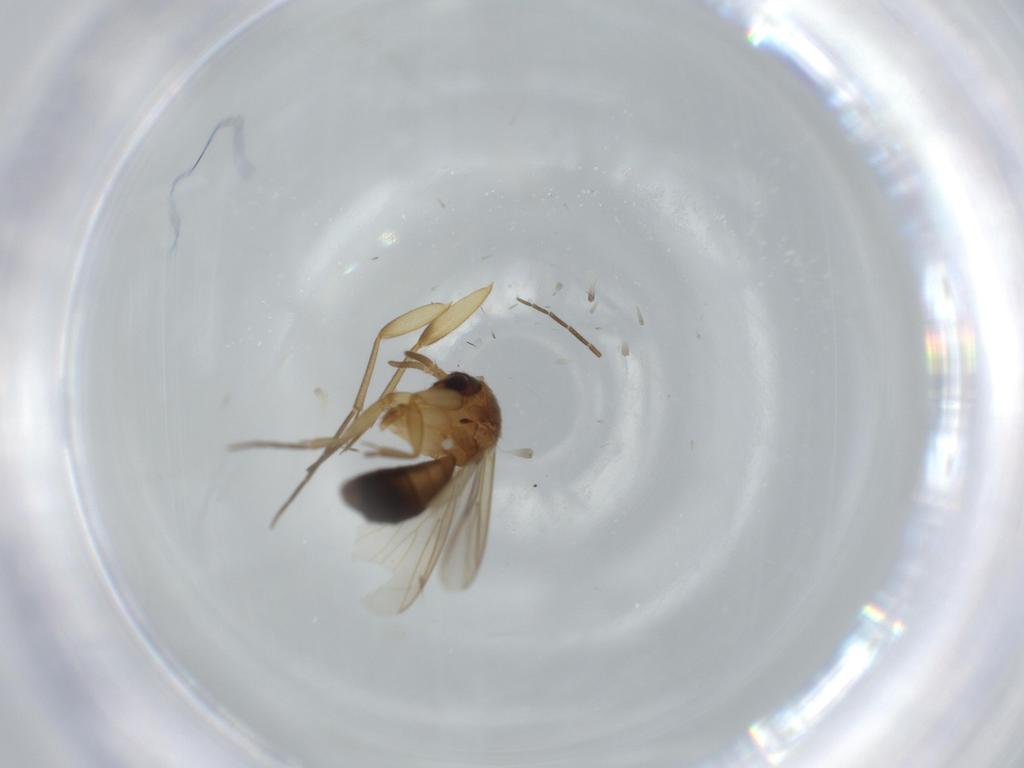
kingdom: Animalia
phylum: Arthropoda
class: Insecta
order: Diptera
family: Mycetophilidae
